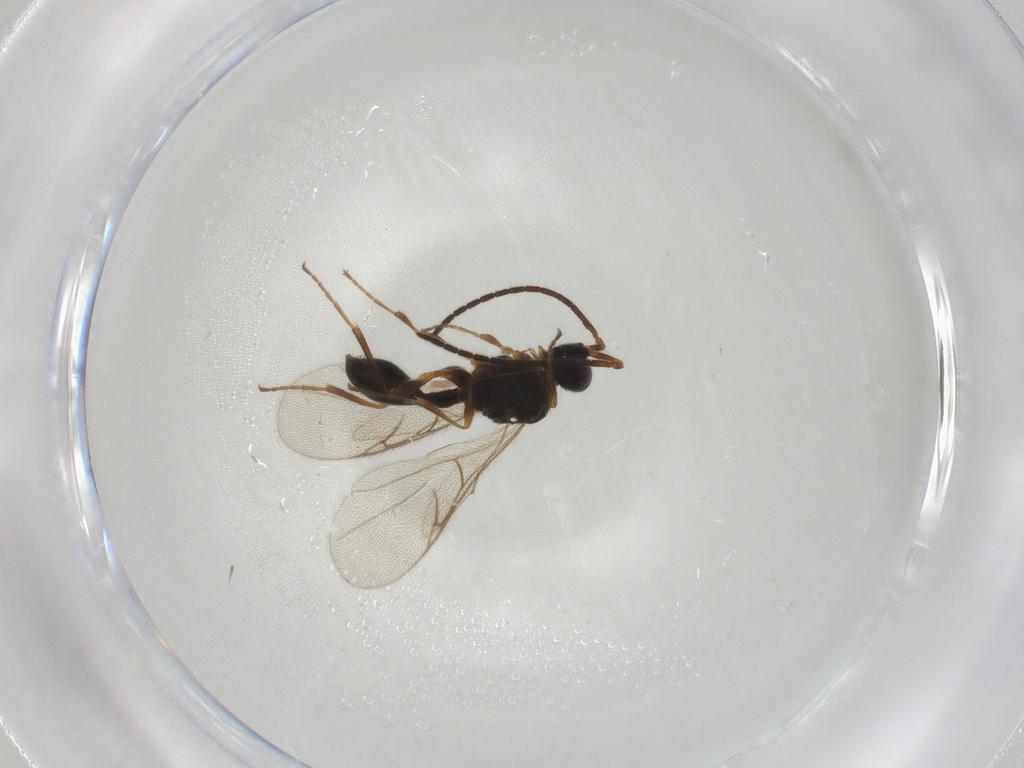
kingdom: Animalia
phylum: Arthropoda
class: Insecta
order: Hymenoptera
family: Diapriidae
